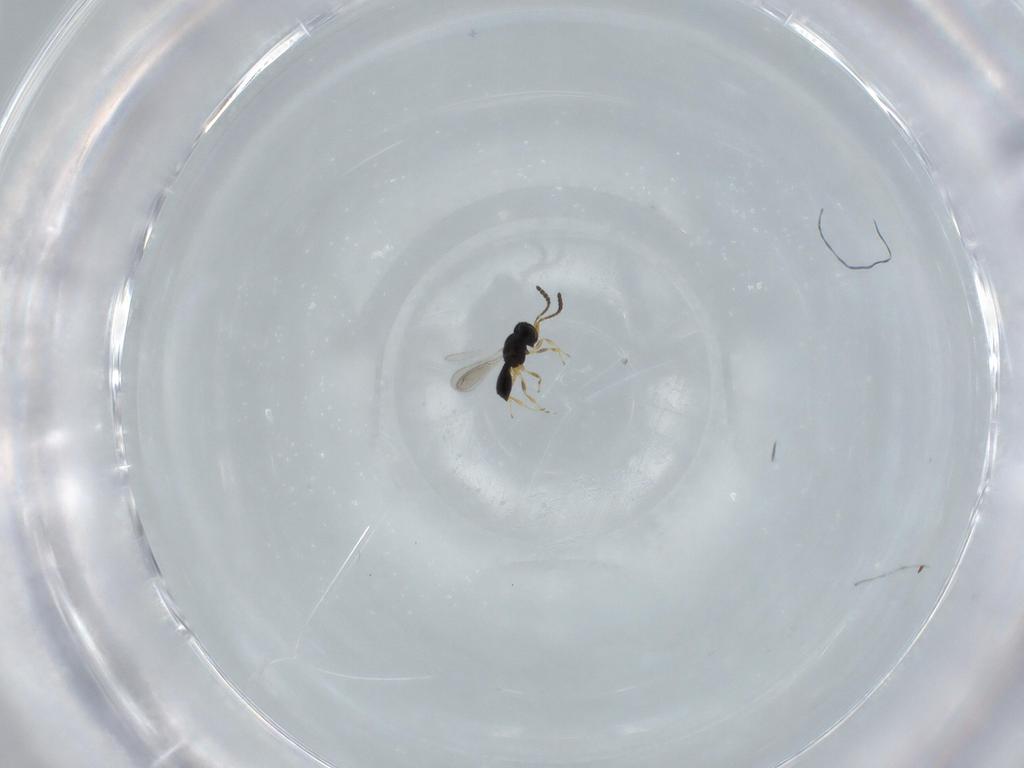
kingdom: Animalia
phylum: Arthropoda
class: Insecta
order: Hymenoptera
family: Scelionidae
